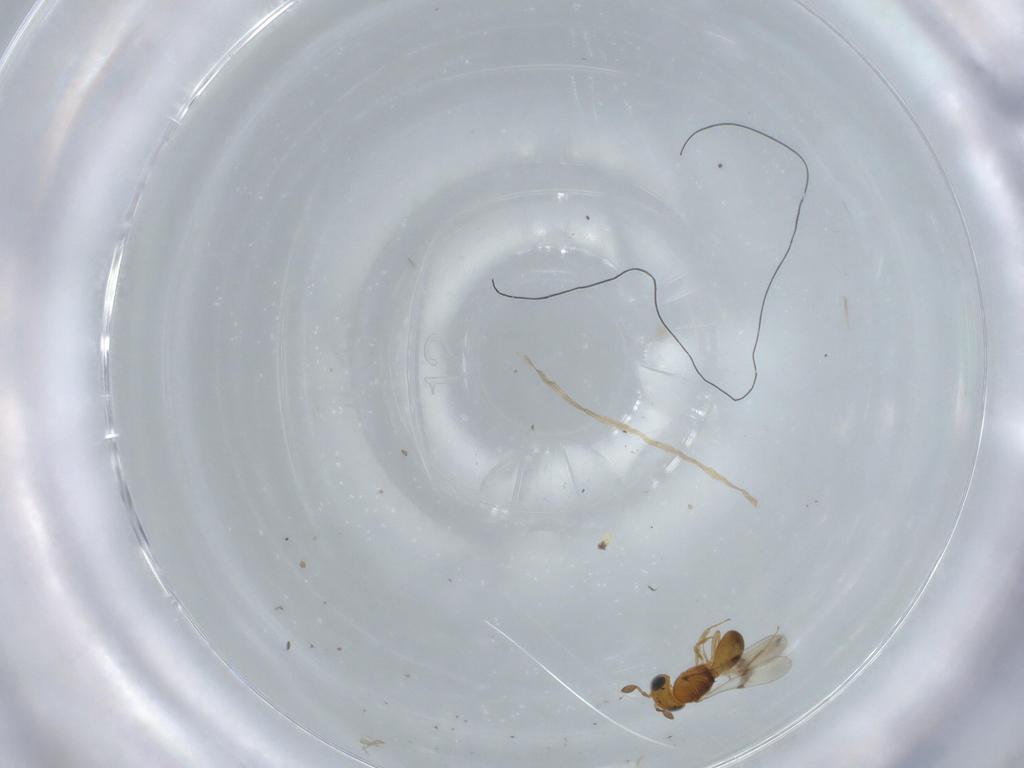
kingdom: Animalia
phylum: Arthropoda
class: Insecta
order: Hymenoptera
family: Scelionidae
